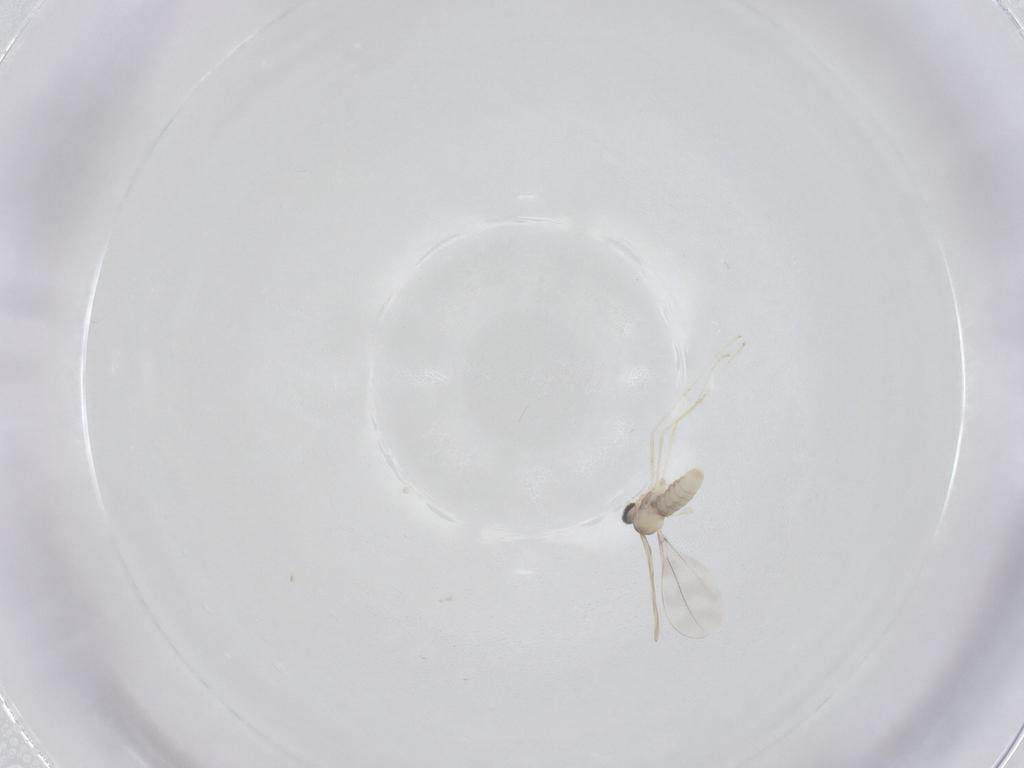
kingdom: Animalia
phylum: Arthropoda
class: Insecta
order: Diptera
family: Cecidomyiidae
